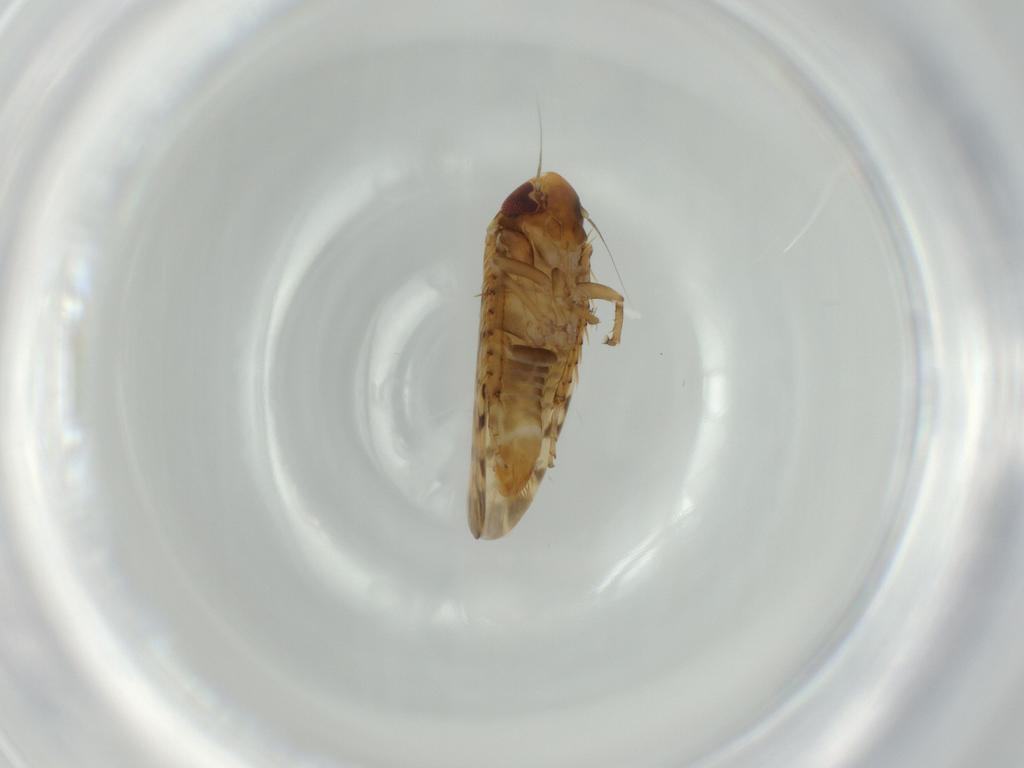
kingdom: Animalia
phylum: Arthropoda
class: Insecta
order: Hemiptera
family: Cicadellidae
